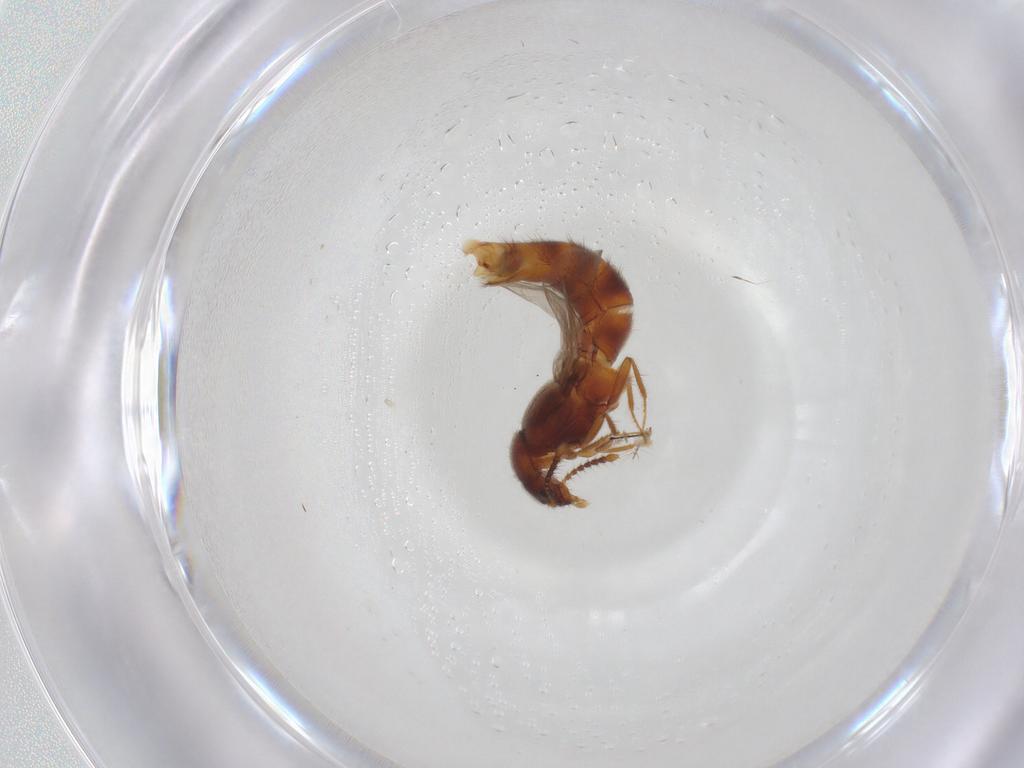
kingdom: Animalia
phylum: Arthropoda
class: Insecta
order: Coleoptera
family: Staphylinidae
